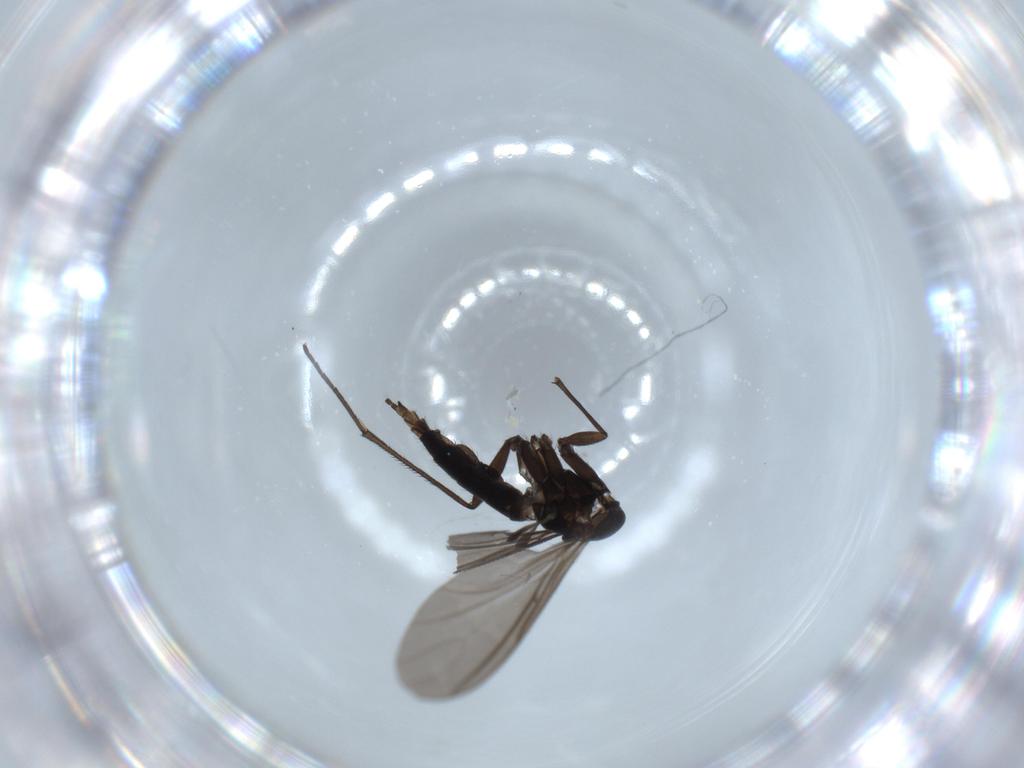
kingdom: Animalia
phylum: Arthropoda
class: Insecta
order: Diptera
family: Sciaridae
